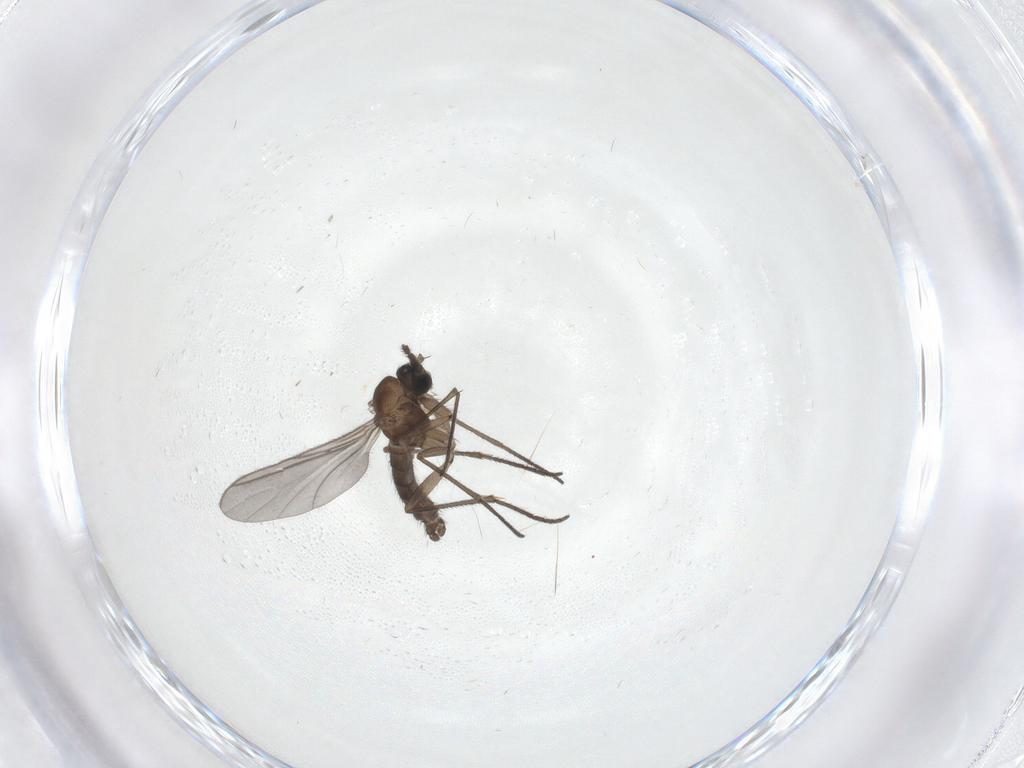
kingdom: Animalia
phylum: Arthropoda
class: Insecta
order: Diptera
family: Sciaridae
